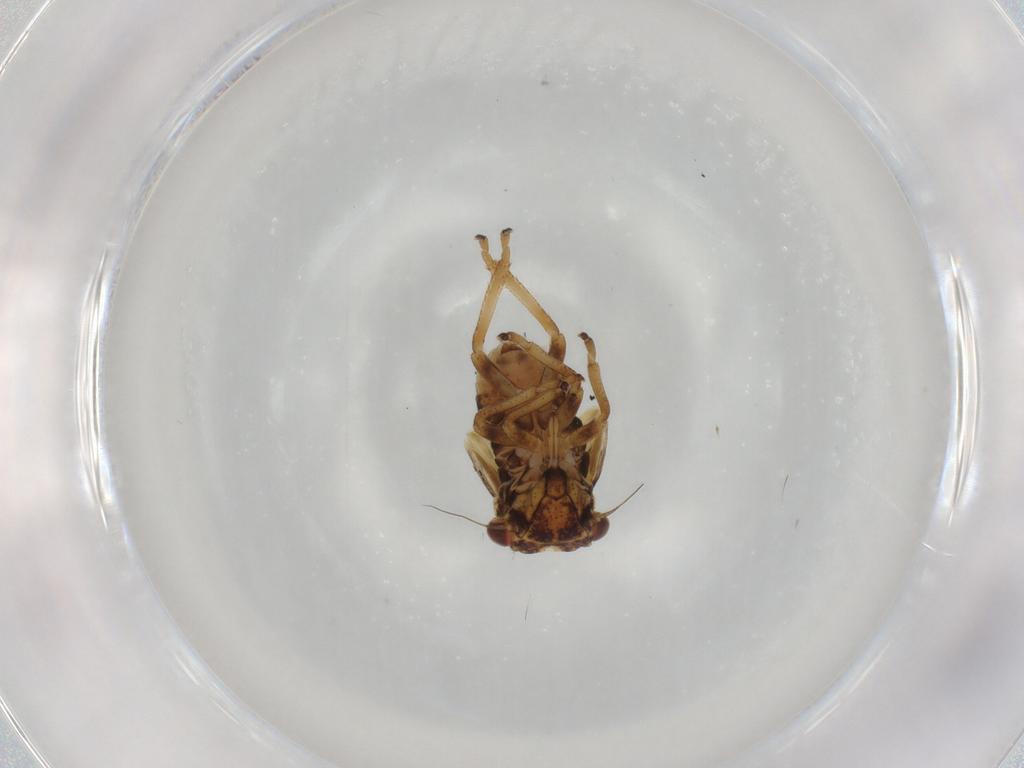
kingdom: Animalia
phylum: Arthropoda
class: Insecta
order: Hemiptera
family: Cicadellidae
